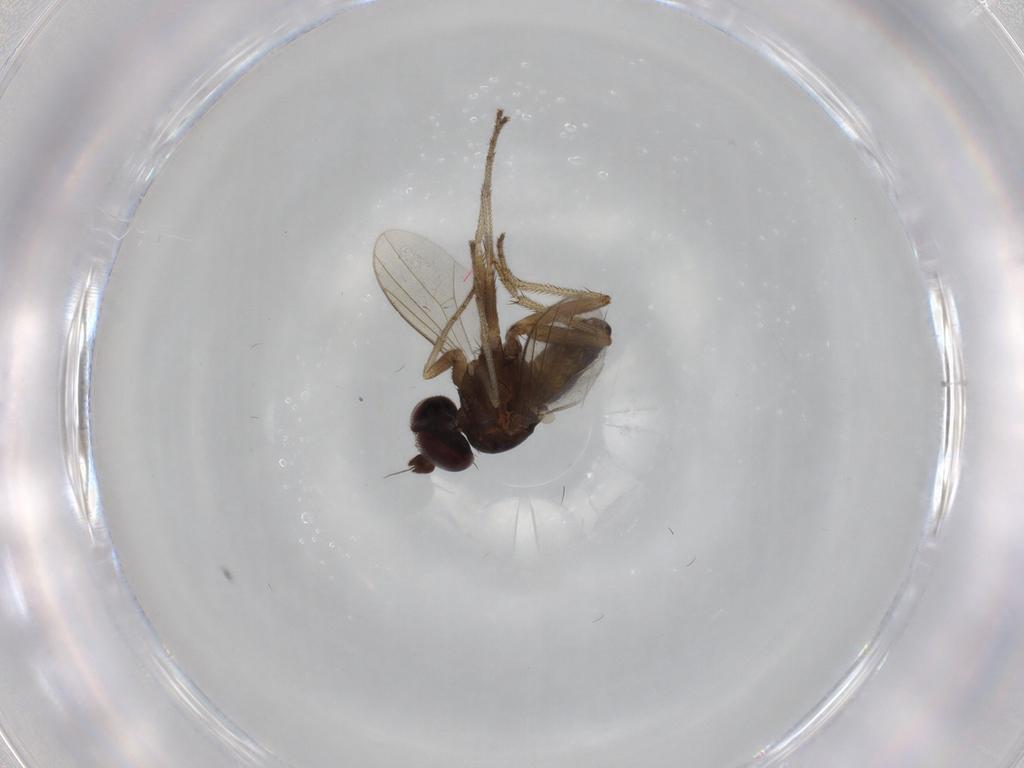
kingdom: Animalia
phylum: Arthropoda
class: Insecta
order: Diptera
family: Dolichopodidae
